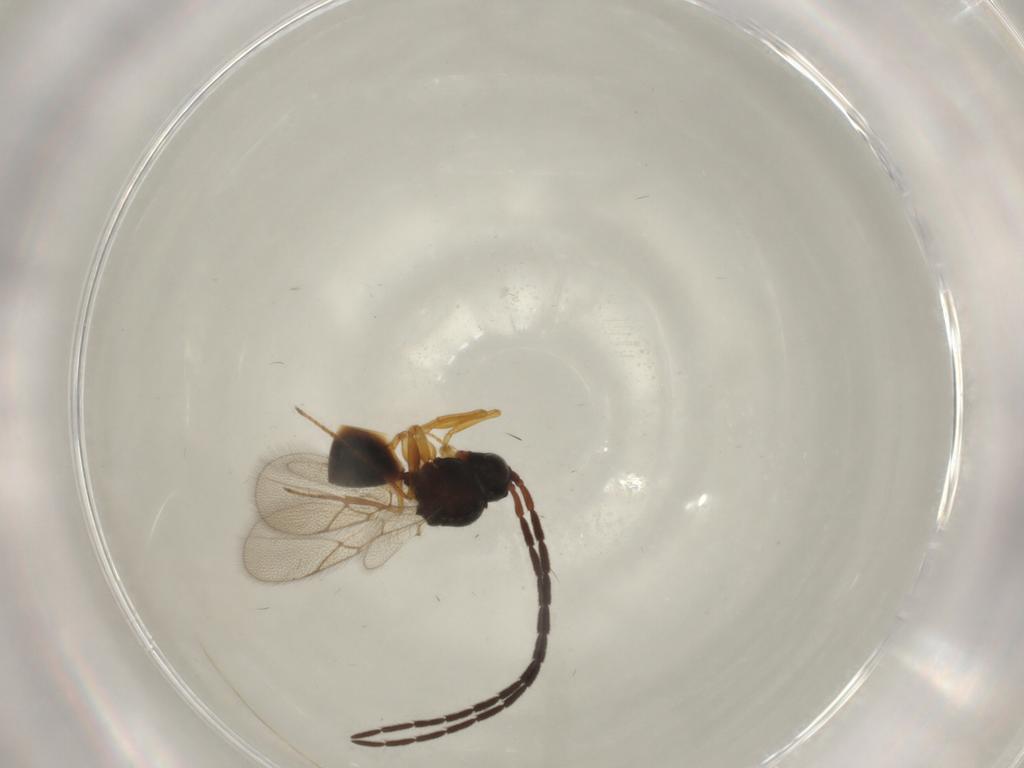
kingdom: Animalia
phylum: Arthropoda
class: Insecta
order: Hymenoptera
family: Figitidae
